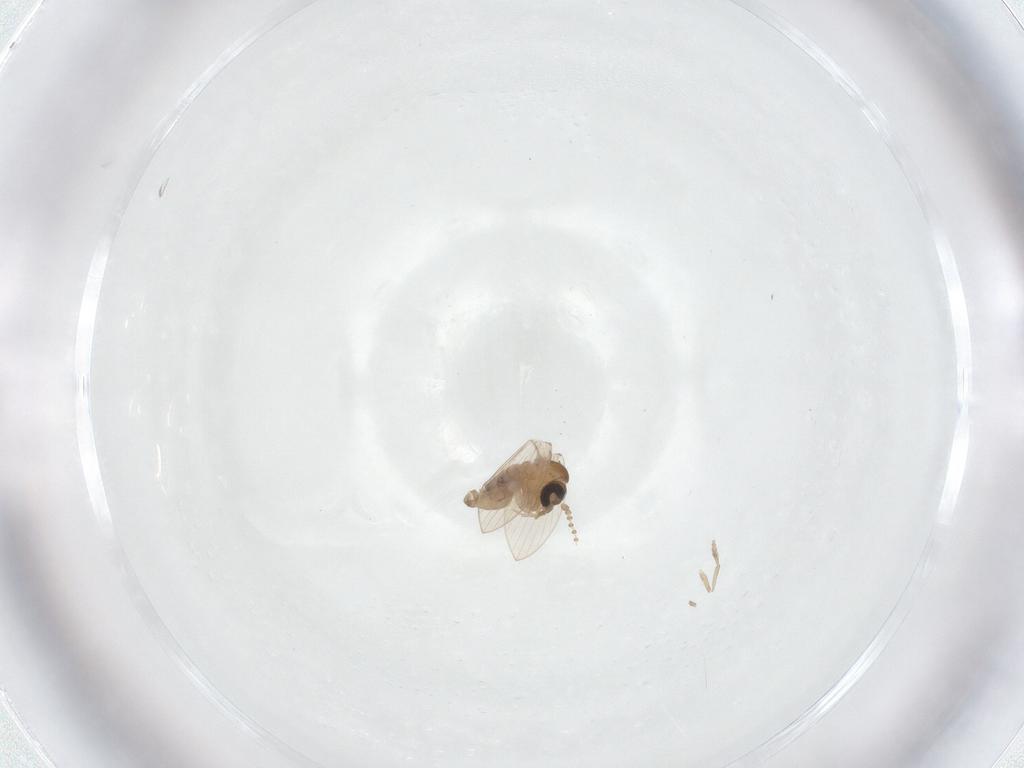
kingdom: Animalia
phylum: Arthropoda
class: Insecta
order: Diptera
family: Psychodidae
